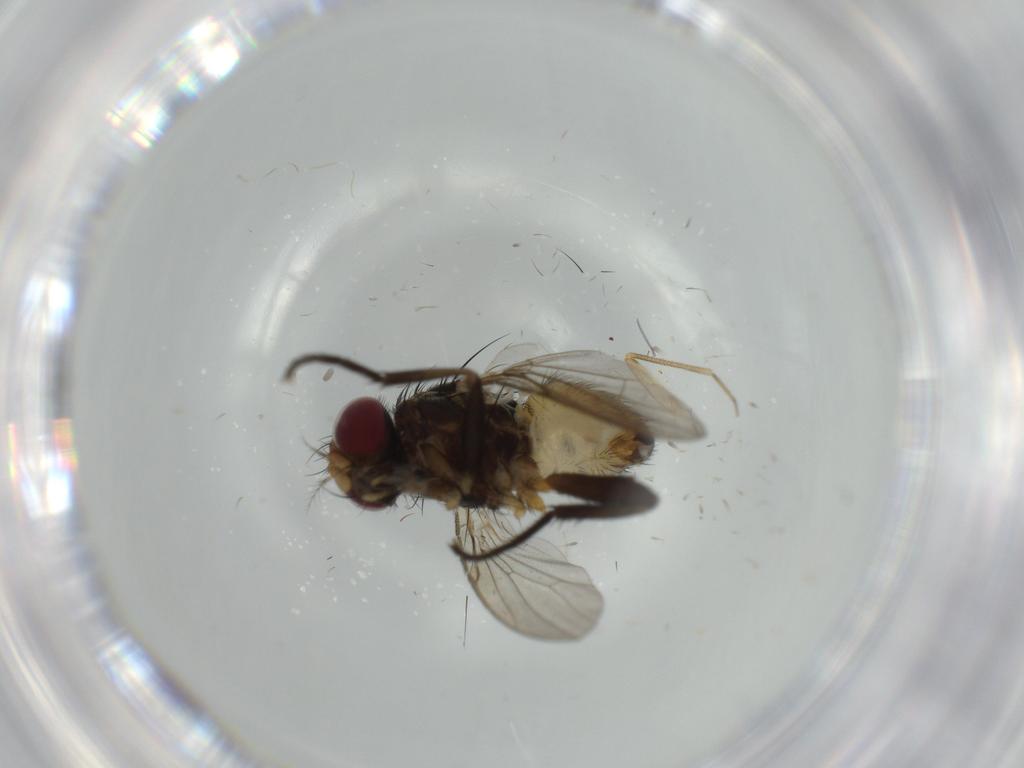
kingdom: Animalia
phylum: Arthropoda
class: Insecta
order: Diptera
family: Anthomyiidae
